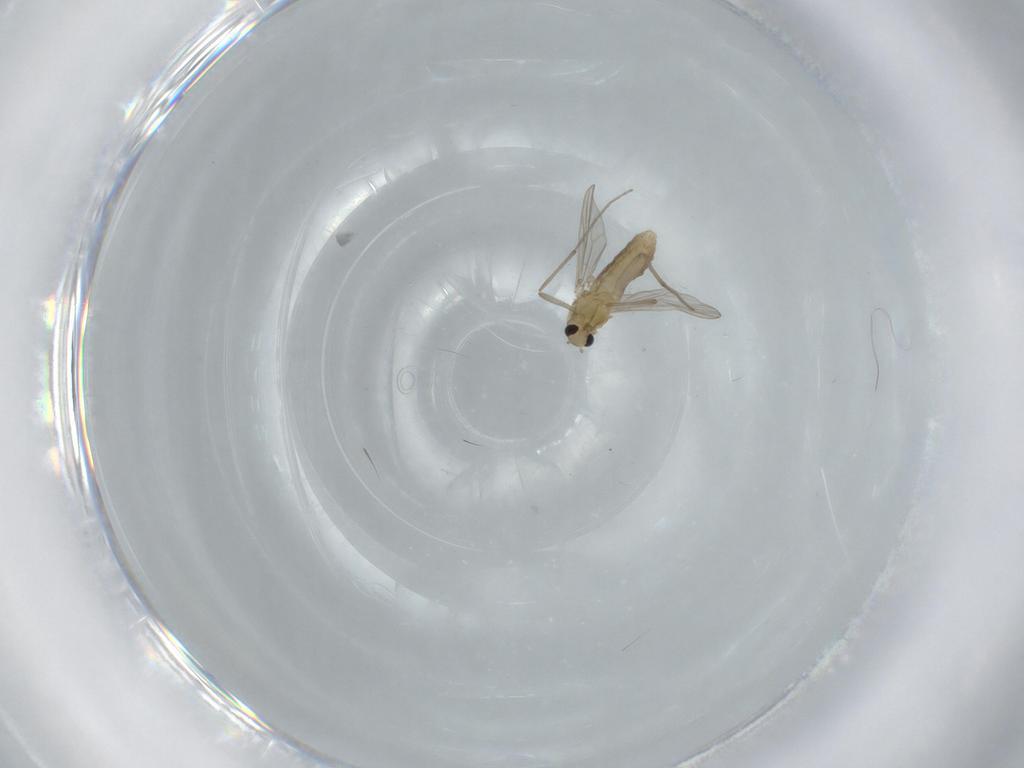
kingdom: Animalia
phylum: Arthropoda
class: Insecta
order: Diptera
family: Chironomidae
